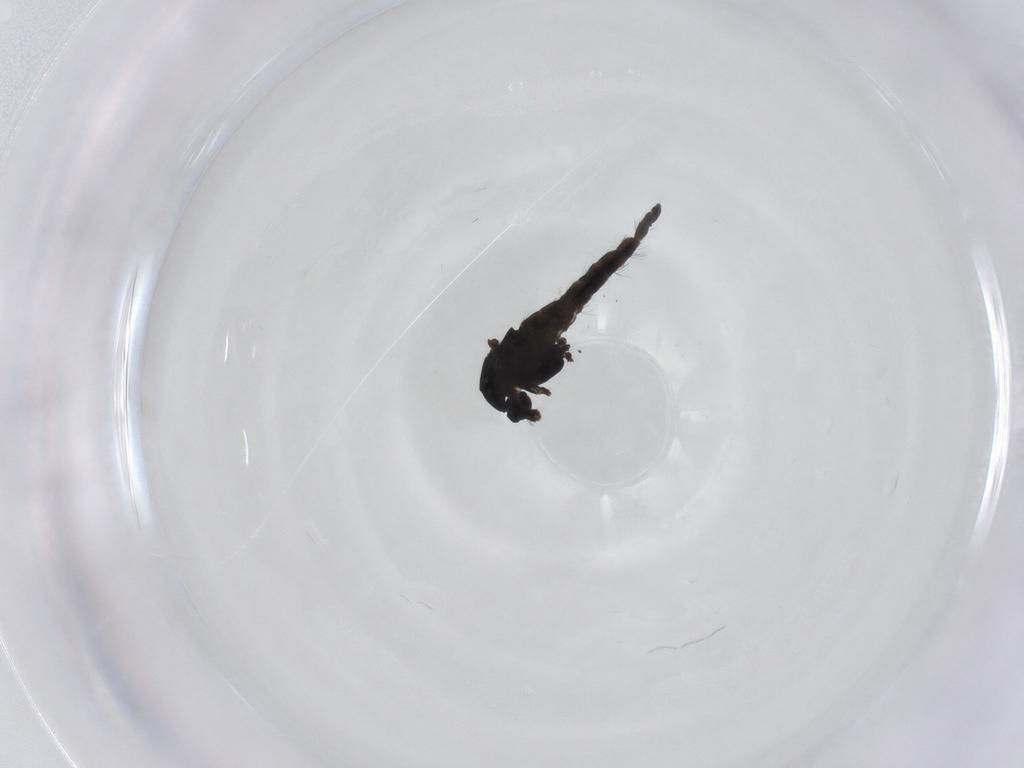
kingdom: Animalia
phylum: Arthropoda
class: Insecta
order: Diptera
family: Chironomidae
